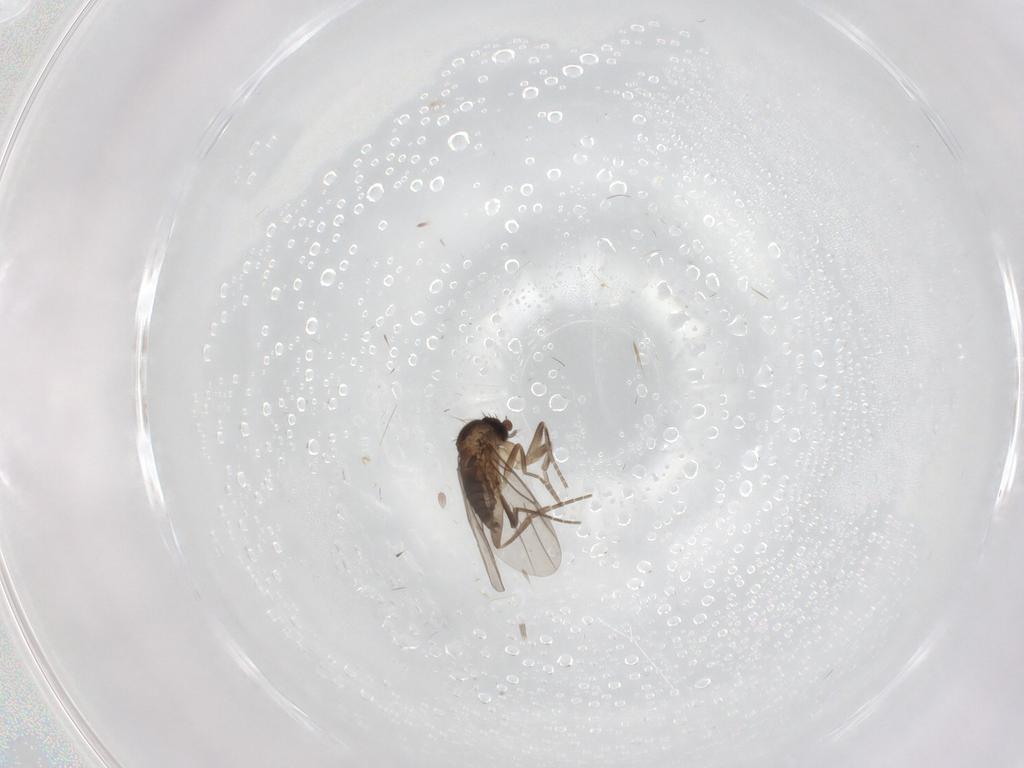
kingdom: Animalia
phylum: Arthropoda
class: Insecta
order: Diptera
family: Phoridae
